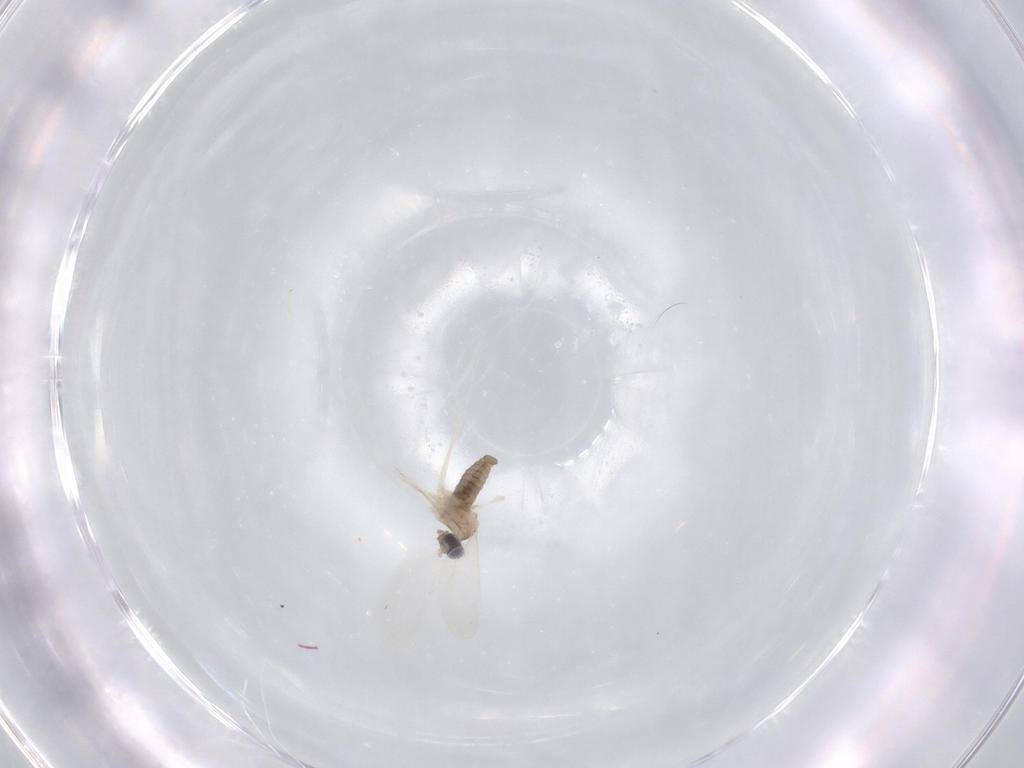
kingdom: Animalia
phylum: Arthropoda
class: Insecta
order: Diptera
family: Cecidomyiidae
